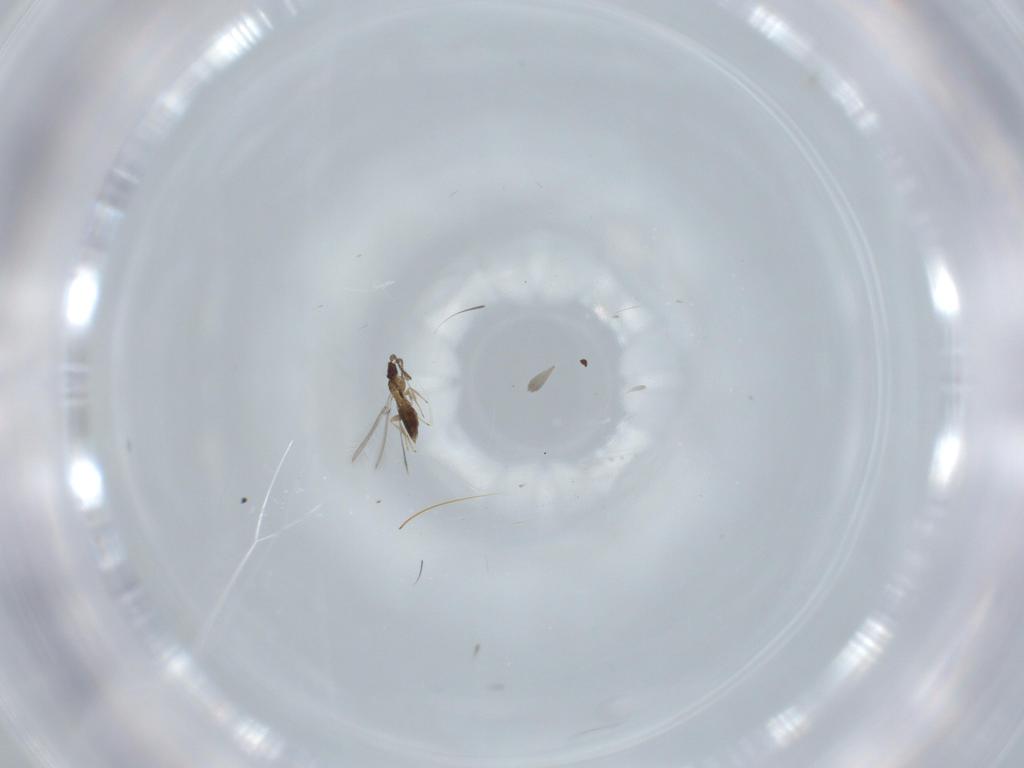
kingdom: Animalia
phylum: Arthropoda
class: Insecta
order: Hymenoptera
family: Mymaridae
